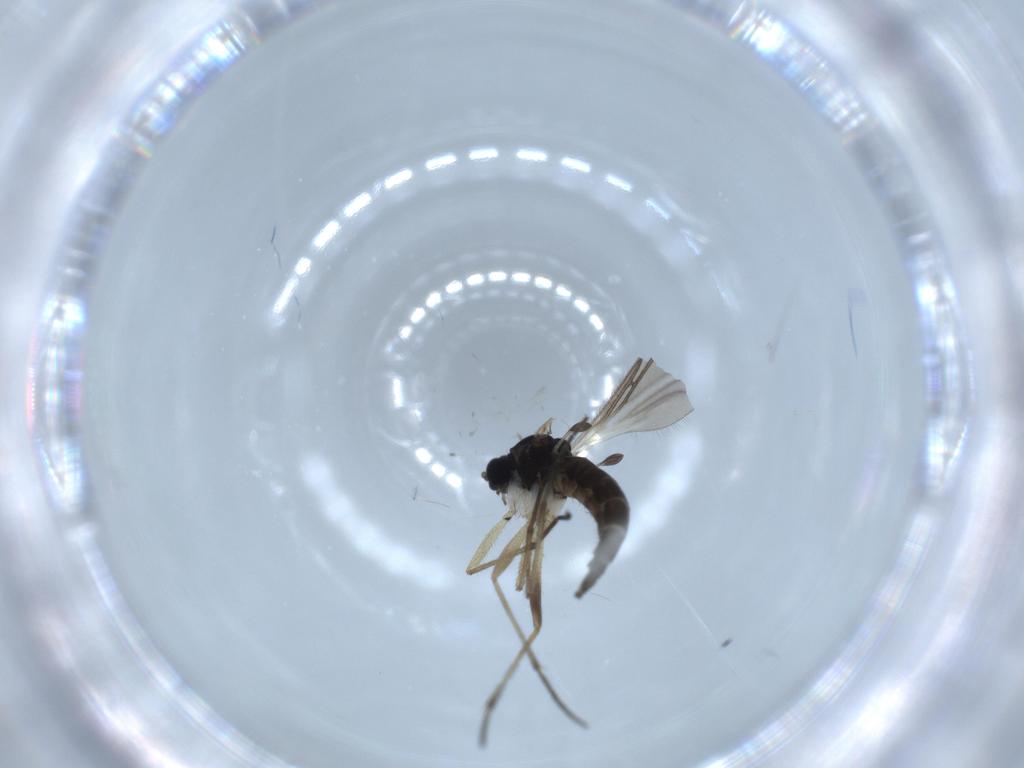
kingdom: Animalia
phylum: Arthropoda
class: Insecta
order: Diptera
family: Sciaridae
